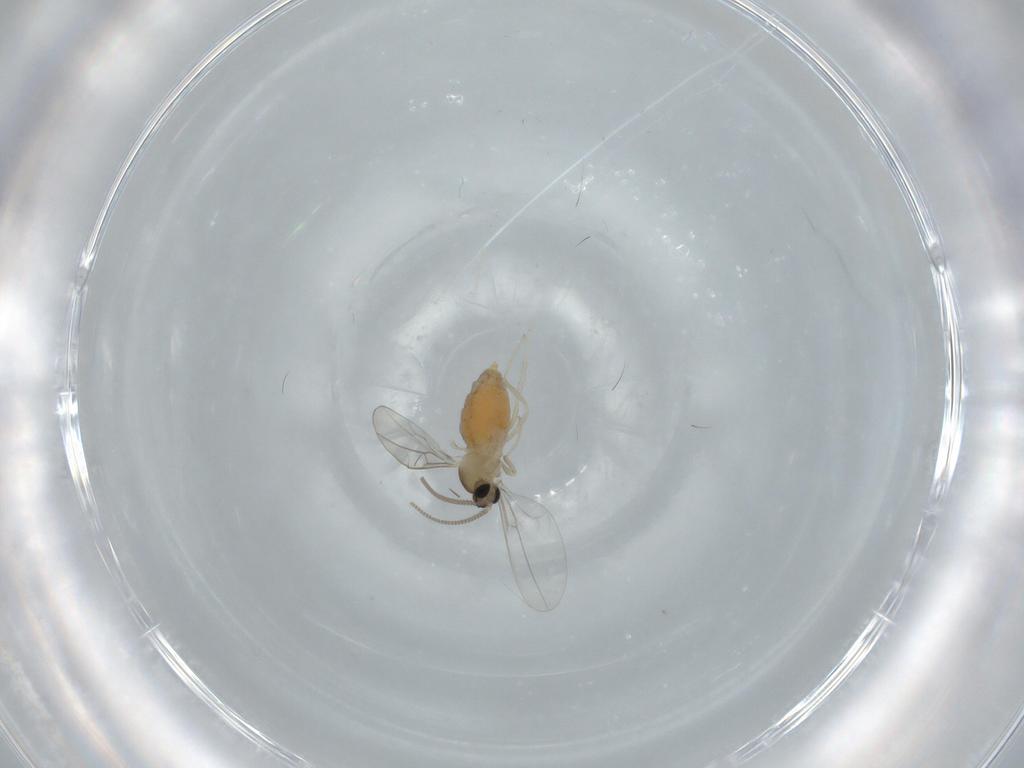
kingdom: Animalia
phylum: Arthropoda
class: Insecta
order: Diptera
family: Cecidomyiidae
